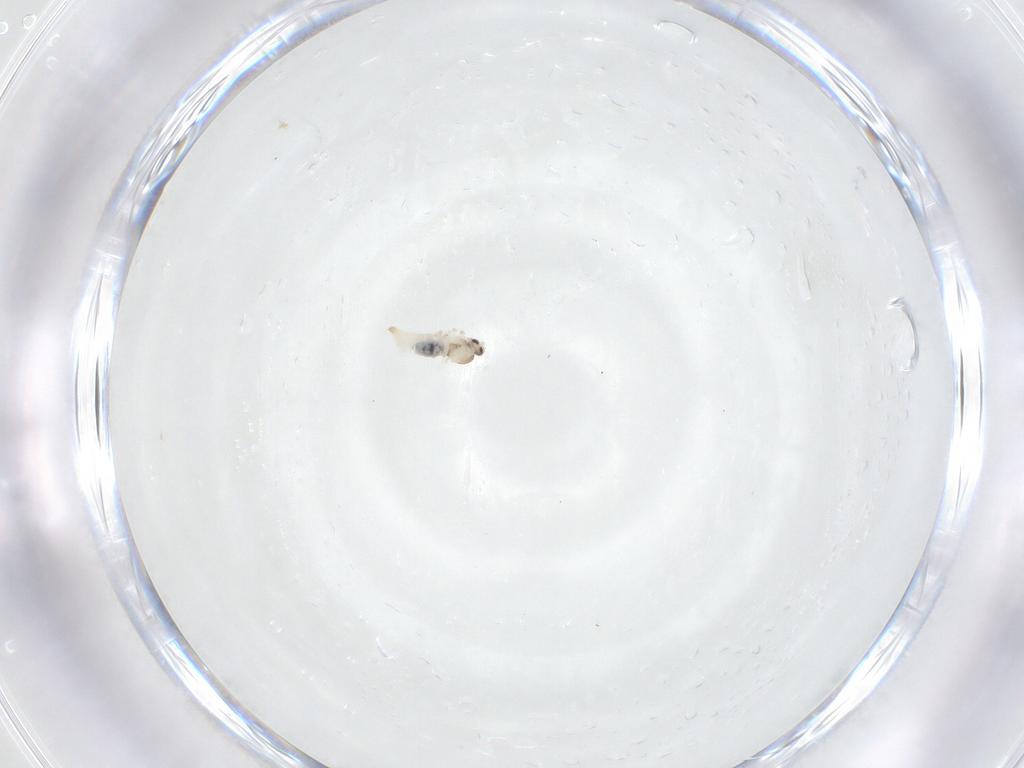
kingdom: Animalia
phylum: Arthropoda
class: Insecta
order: Diptera
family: Cecidomyiidae
